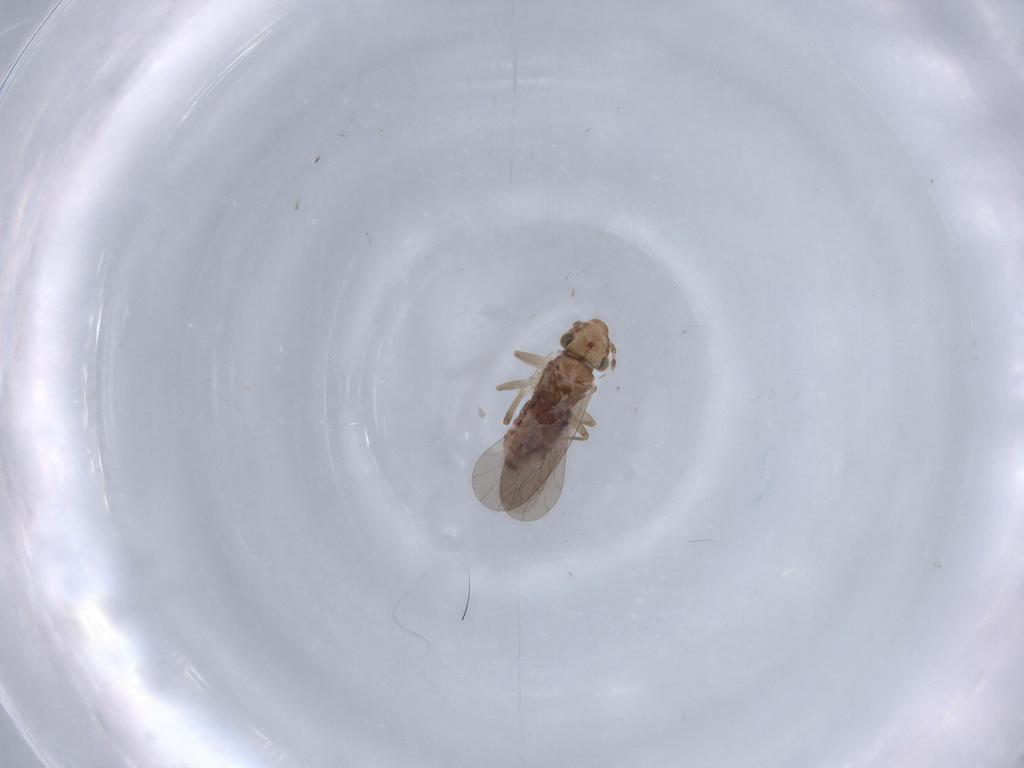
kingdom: Animalia
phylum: Arthropoda
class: Insecta
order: Psocodea
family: Lepidopsocidae
